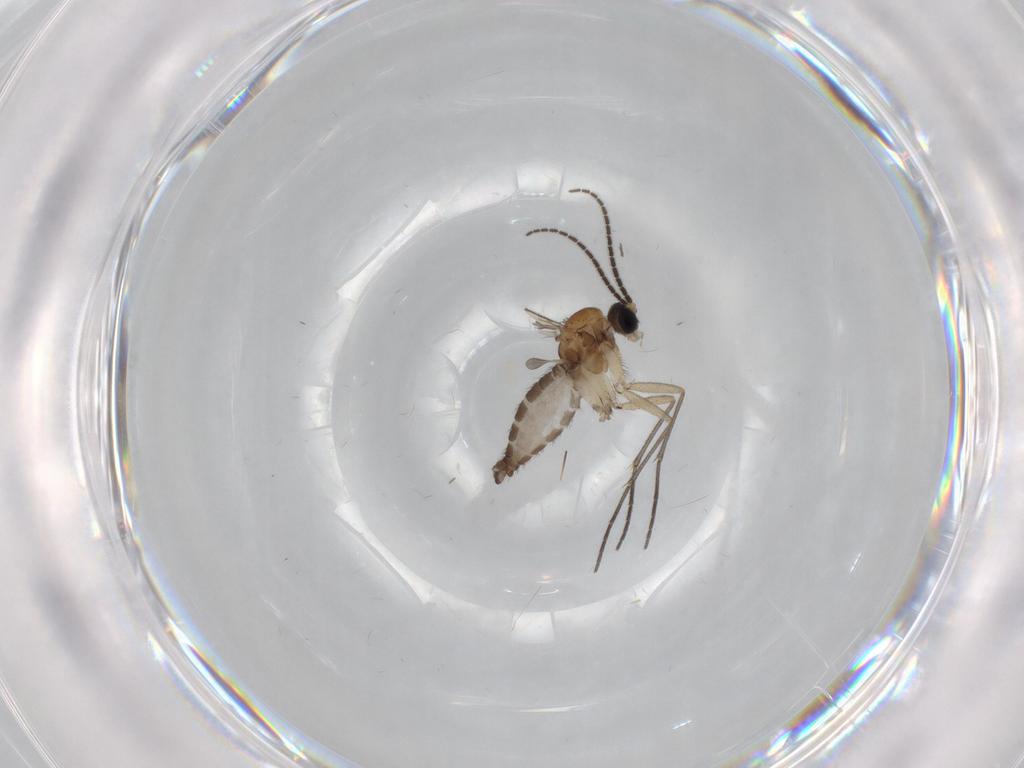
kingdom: Animalia
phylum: Arthropoda
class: Insecta
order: Diptera
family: Sciaridae
